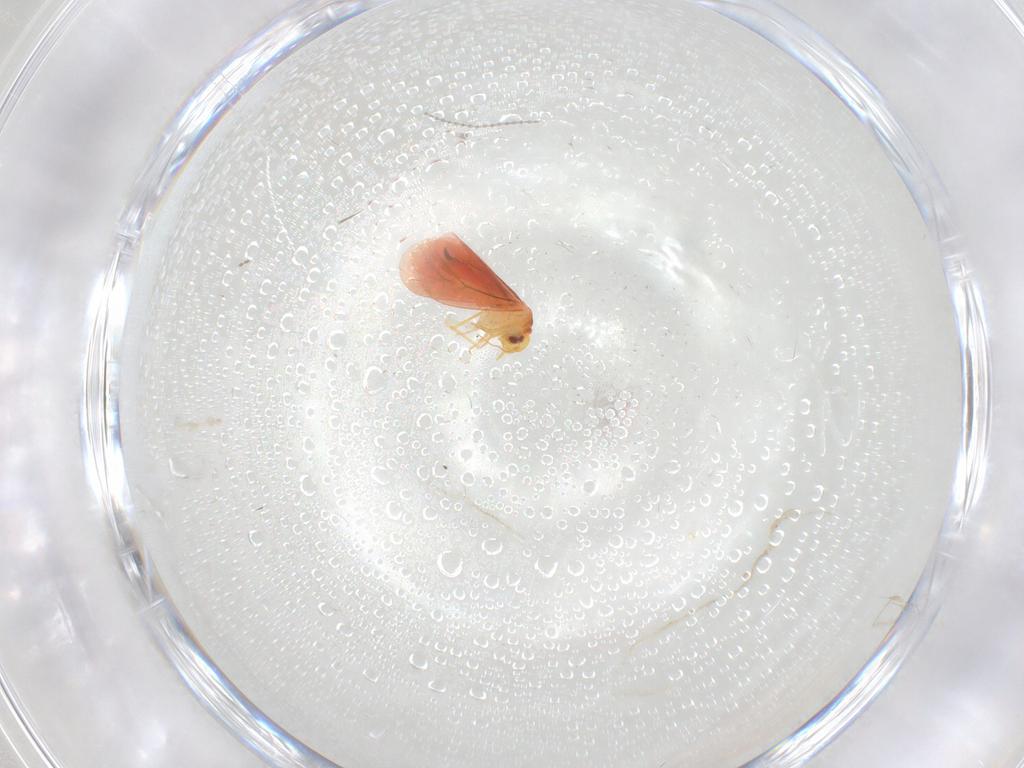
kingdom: Animalia
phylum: Arthropoda
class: Insecta
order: Hemiptera
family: Aleyrodidae
